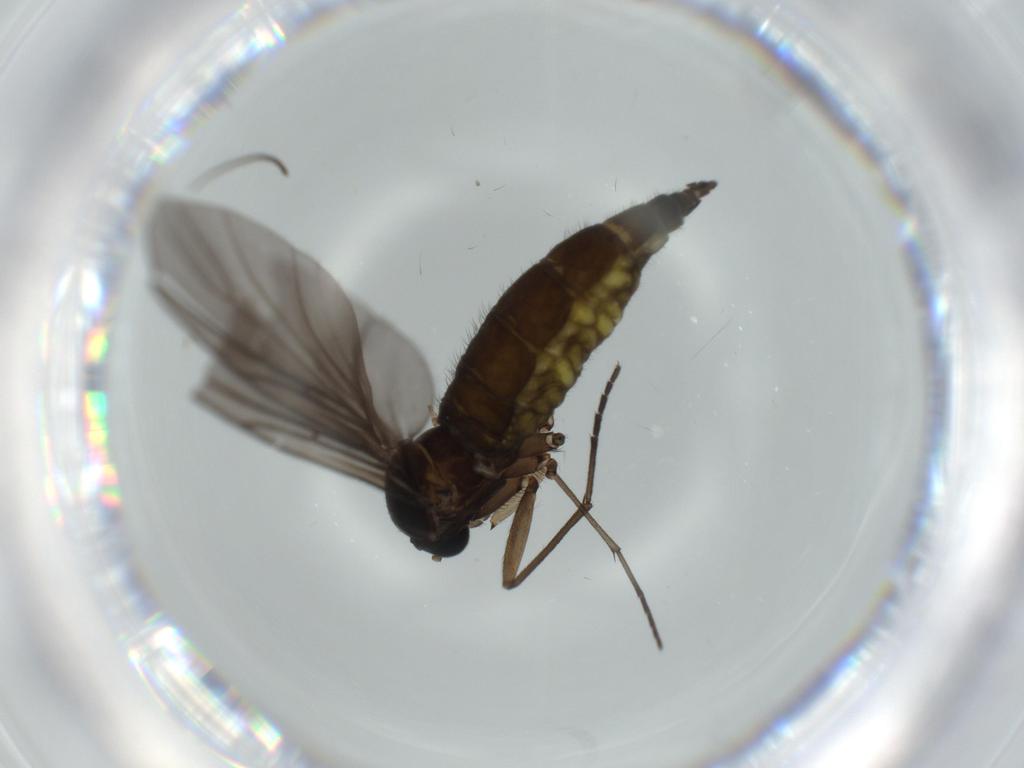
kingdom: Animalia
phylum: Arthropoda
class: Insecta
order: Diptera
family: Sciaridae
